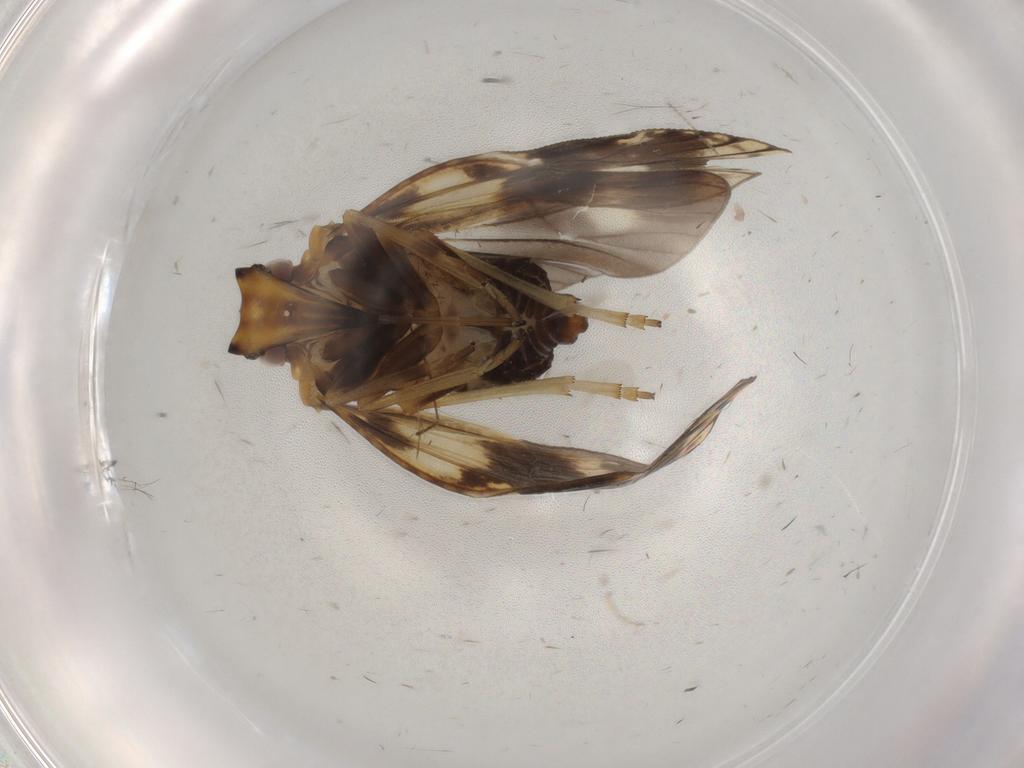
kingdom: Animalia
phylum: Arthropoda
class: Insecta
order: Hemiptera
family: Cixiidae
